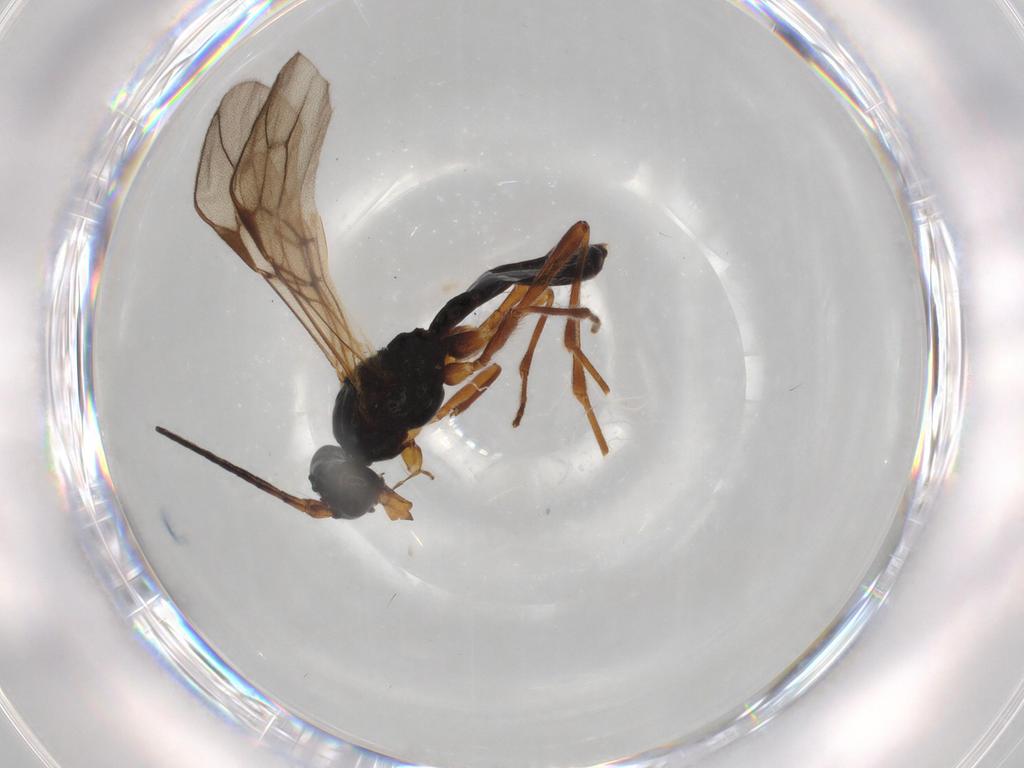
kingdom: Animalia
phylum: Arthropoda
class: Insecta
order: Hymenoptera
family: Braconidae
